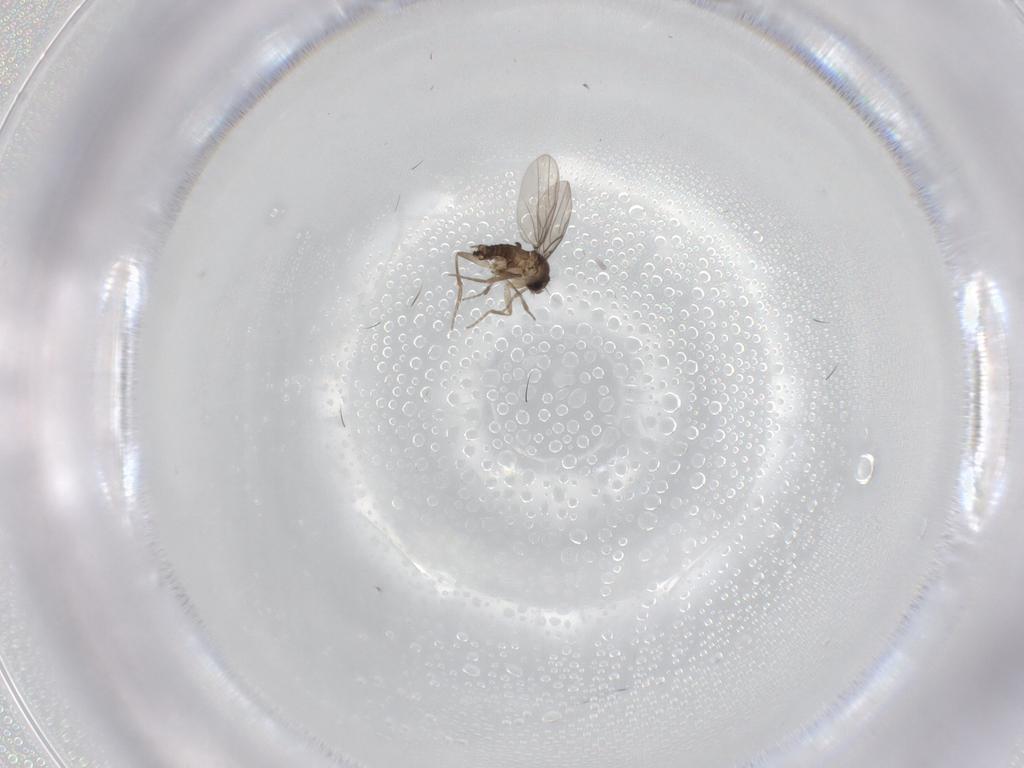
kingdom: Animalia
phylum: Arthropoda
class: Insecta
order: Diptera
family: Phoridae
